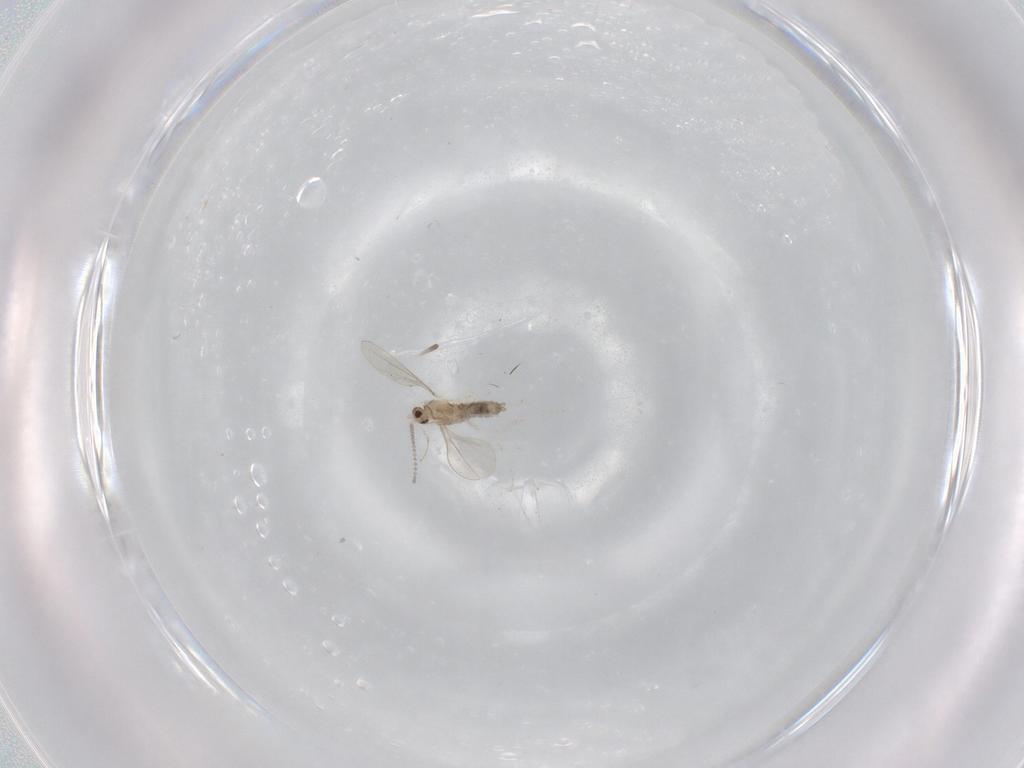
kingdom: Animalia
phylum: Arthropoda
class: Insecta
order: Diptera
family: Cecidomyiidae
